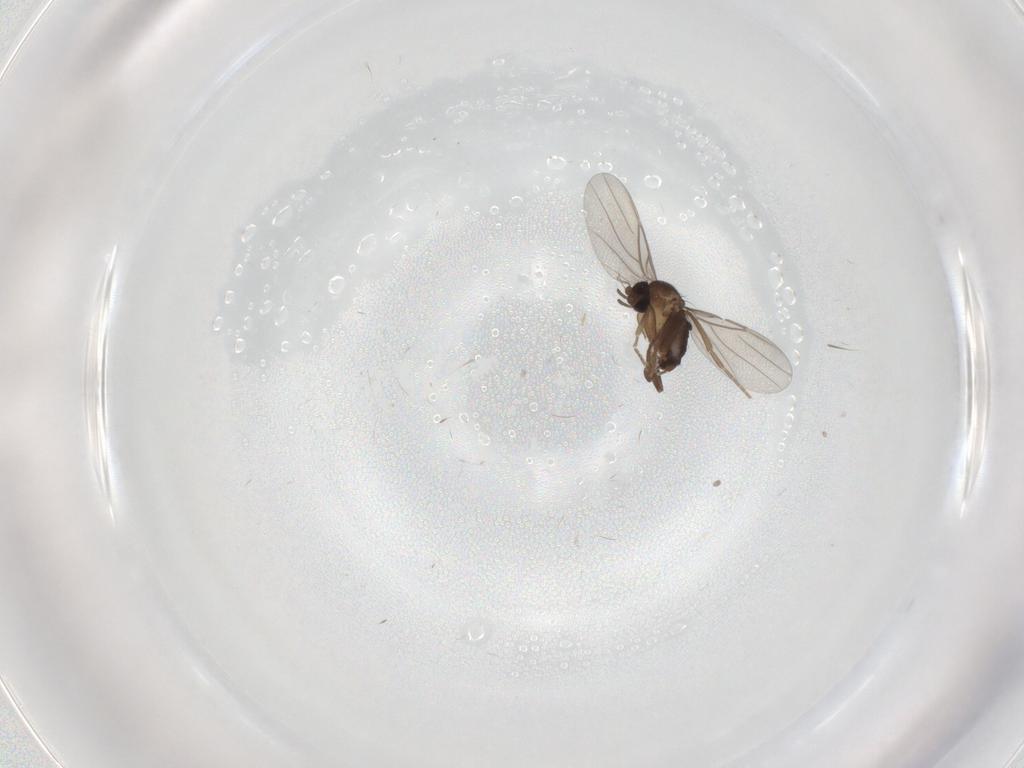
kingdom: Animalia
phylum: Arthropoda
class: Insecta
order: Diptera
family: Cecidomyiidae
